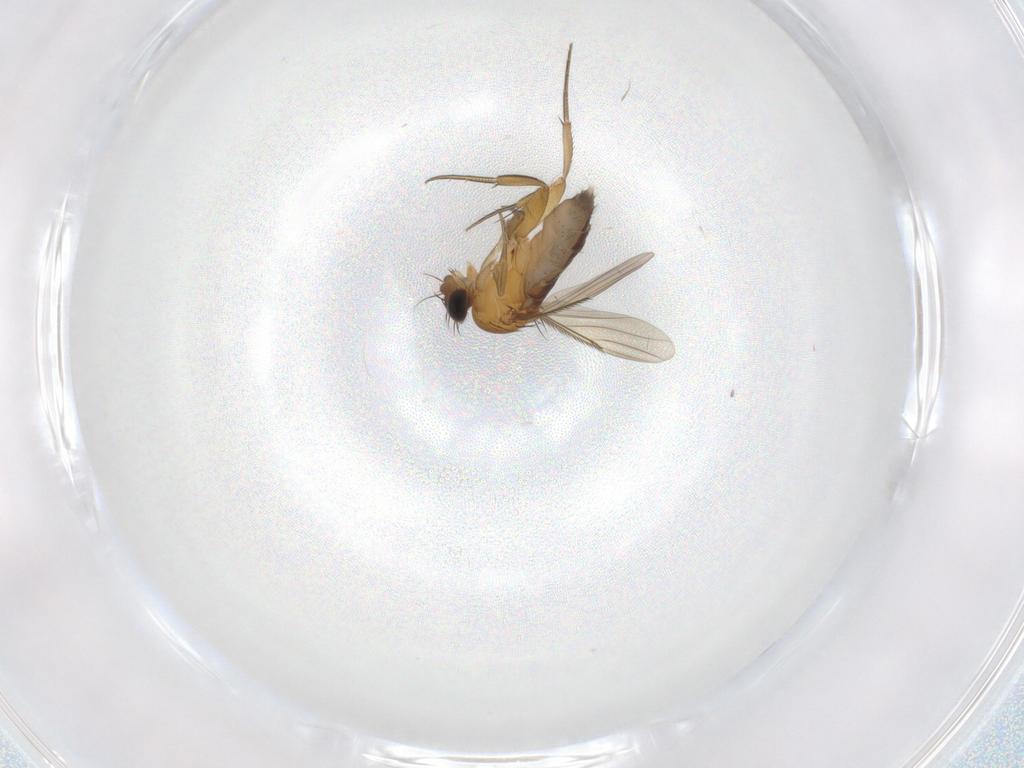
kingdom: Animalia
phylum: Arthropoda
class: Insecta
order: Diptera
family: Phoridae
